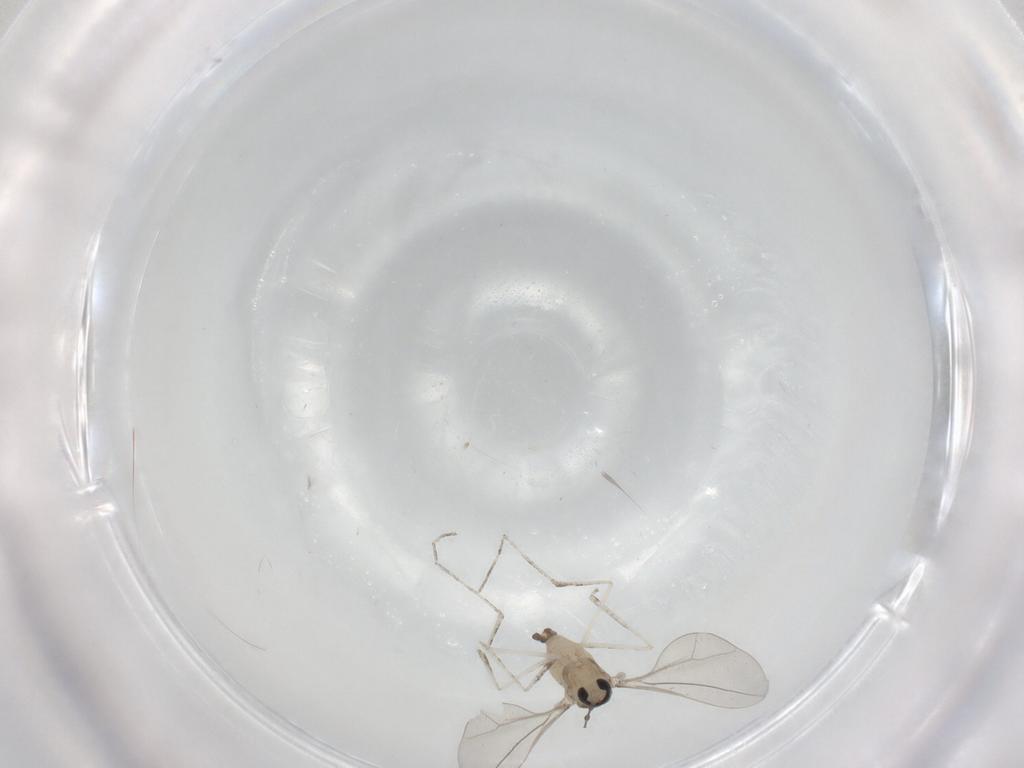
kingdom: Animalia
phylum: Arthropoda
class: Insecta
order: Diptera
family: Cecidomyiidae
